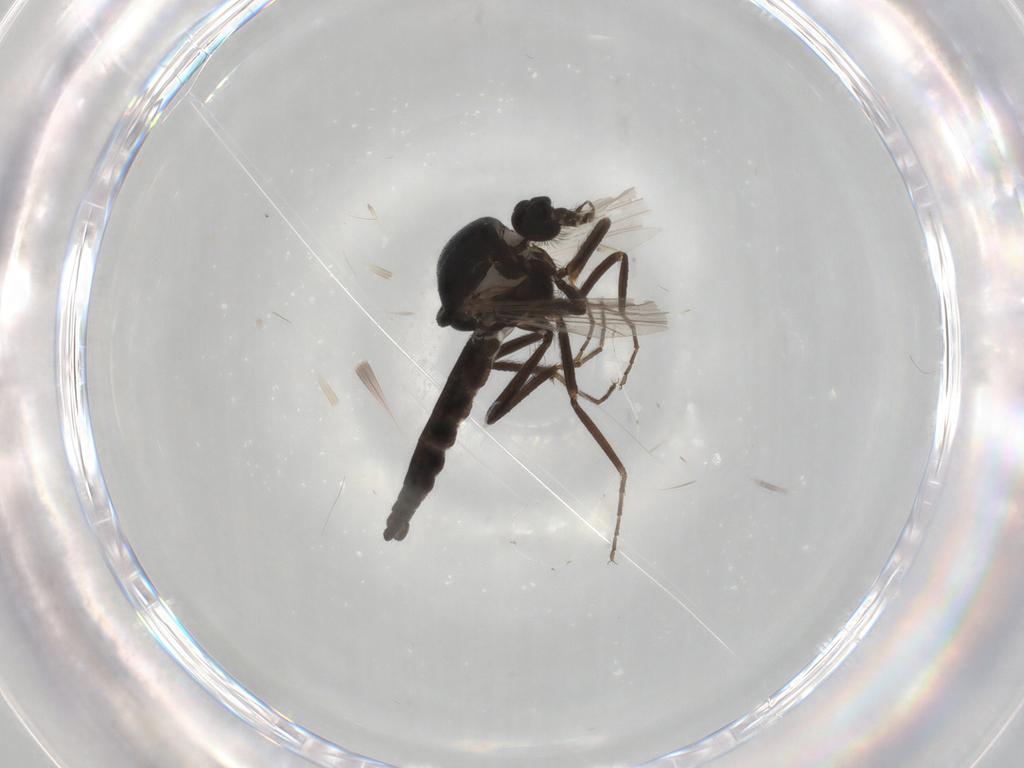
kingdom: Animalia
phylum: Arthropoda
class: Insecta
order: Diptera
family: Ceratopogonidae
